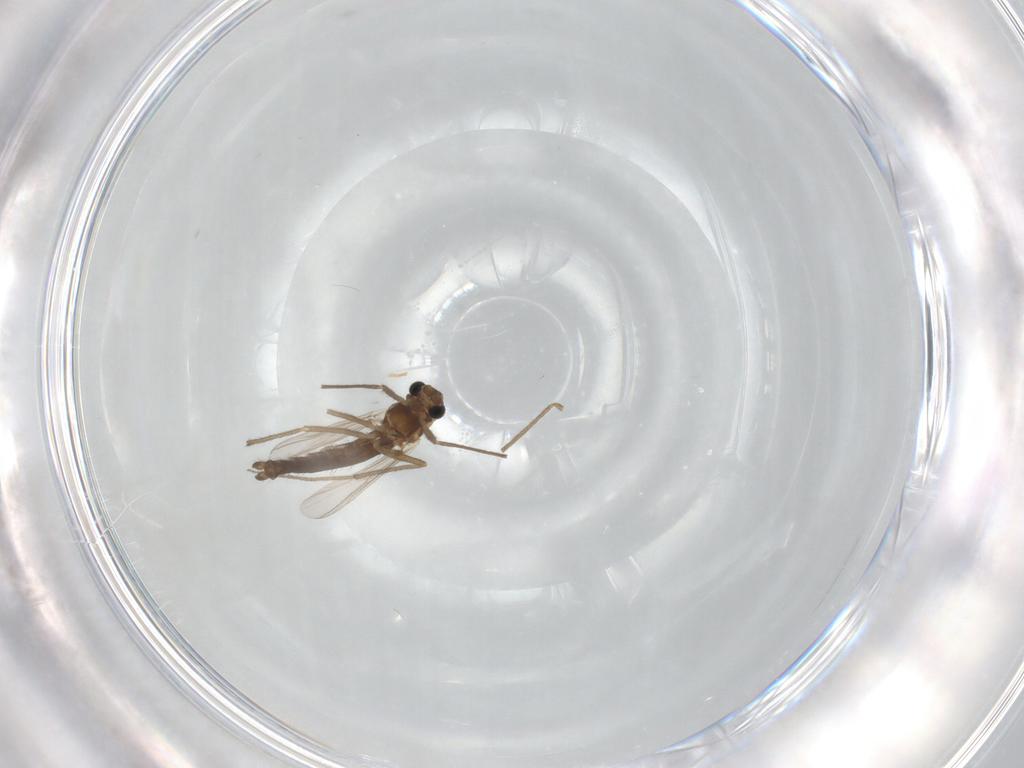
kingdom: Animalia
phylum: Arthropoda
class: Insecta
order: Diptera
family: Chironomidae
